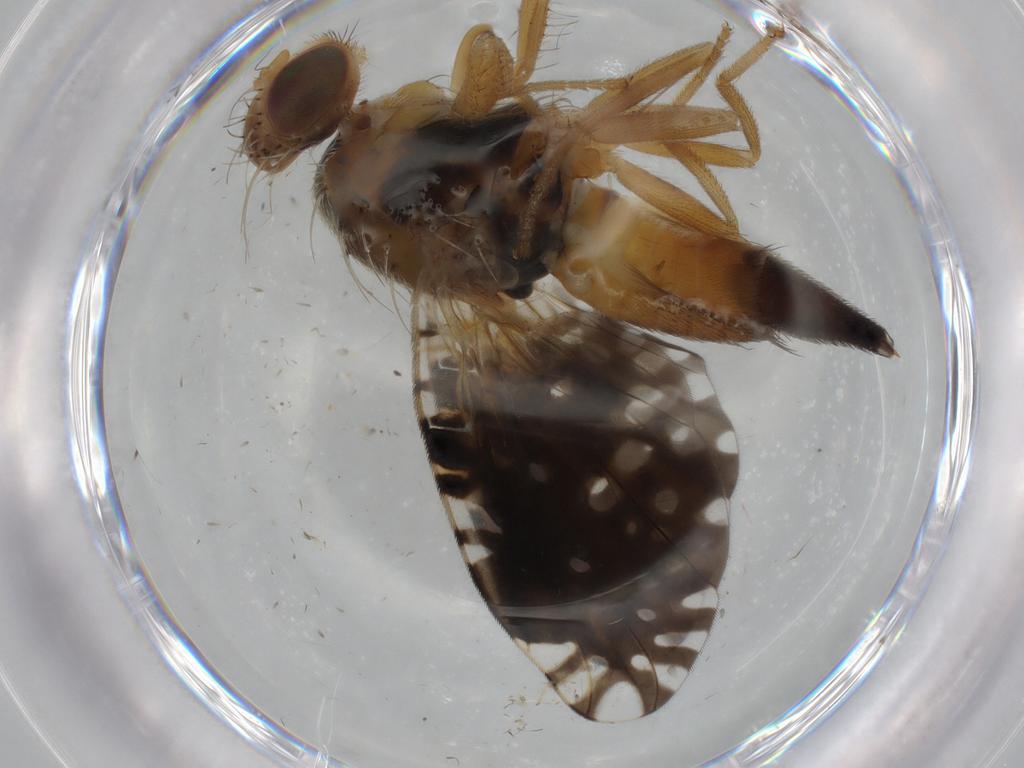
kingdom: Animalia
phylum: Arthropoda
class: Insecta
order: Diptera
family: Tephritidae
